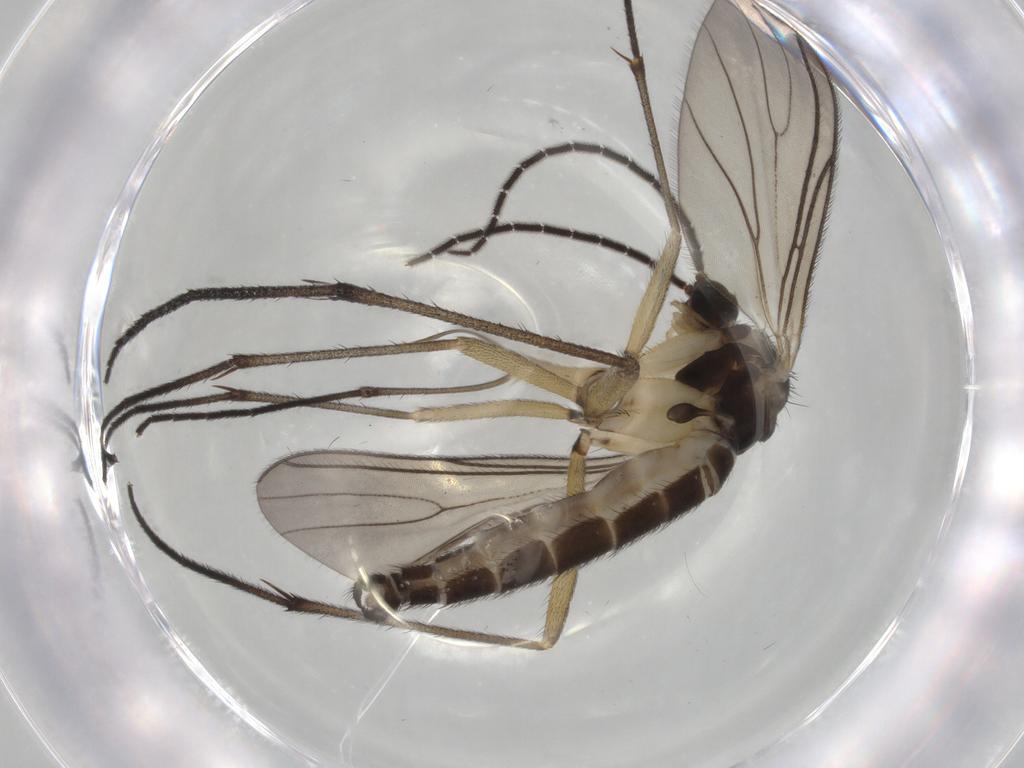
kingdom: Animalia
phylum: Arthropoda
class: Insecta
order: Diptera
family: Sciaridae
